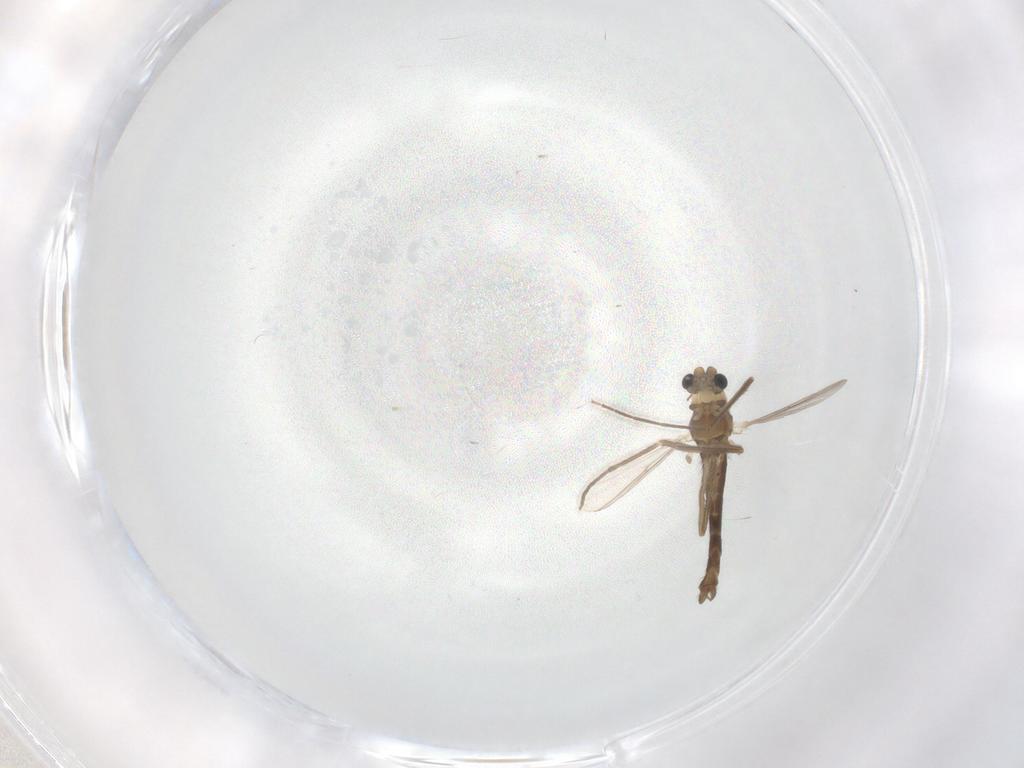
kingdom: Animalia
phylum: Arthropoda
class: Insecta
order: Diptera
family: Chironomidae
